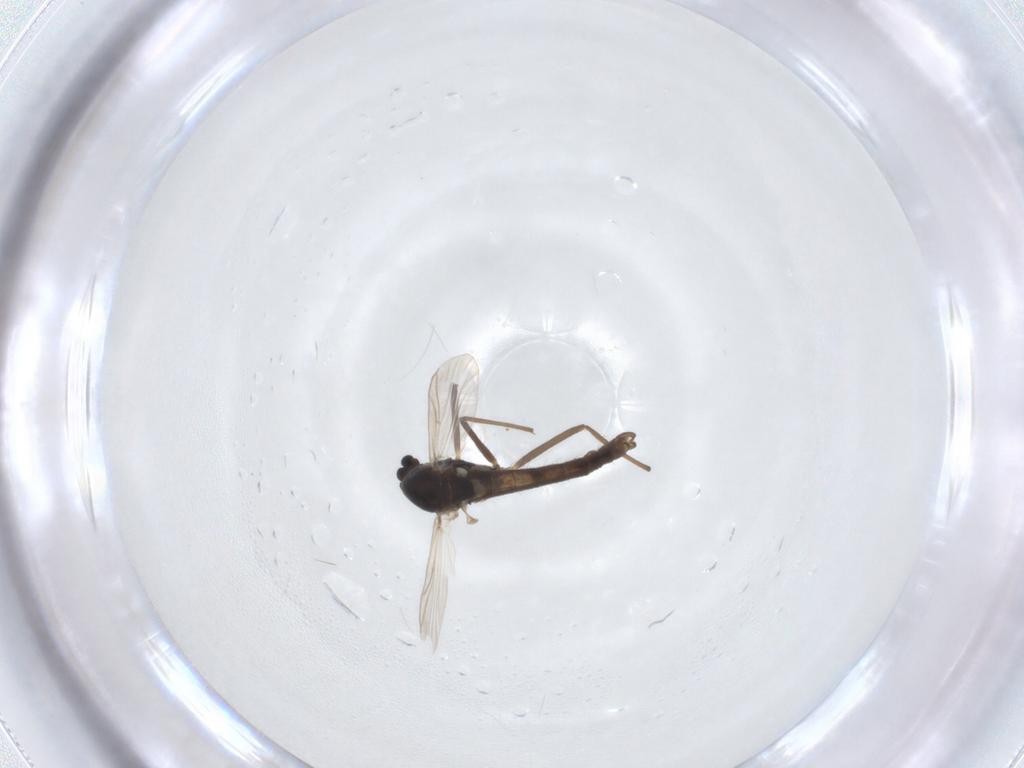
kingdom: Animalia
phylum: Arthropoda
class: Insecta
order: Diptera
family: Chironomidae
